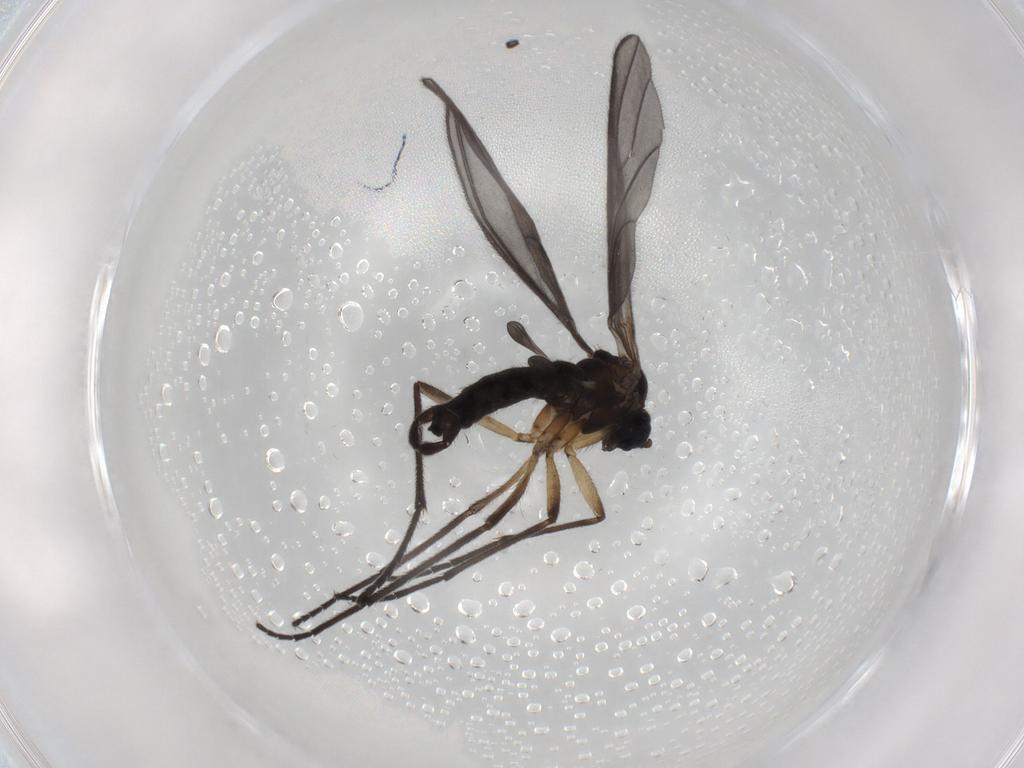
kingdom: Animalia
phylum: Arthropoda
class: Insecta
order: Diptera
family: Sciaridae
